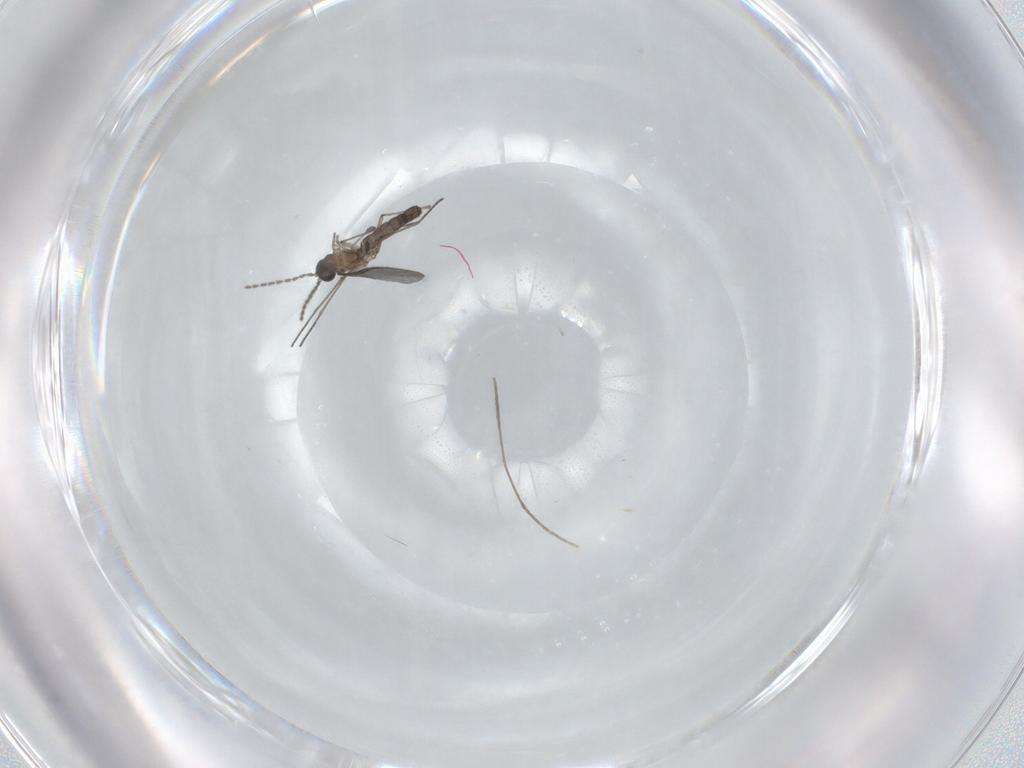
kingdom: Animalia
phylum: Arthropoda
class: Insecta
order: Diptera
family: Sciaridae
